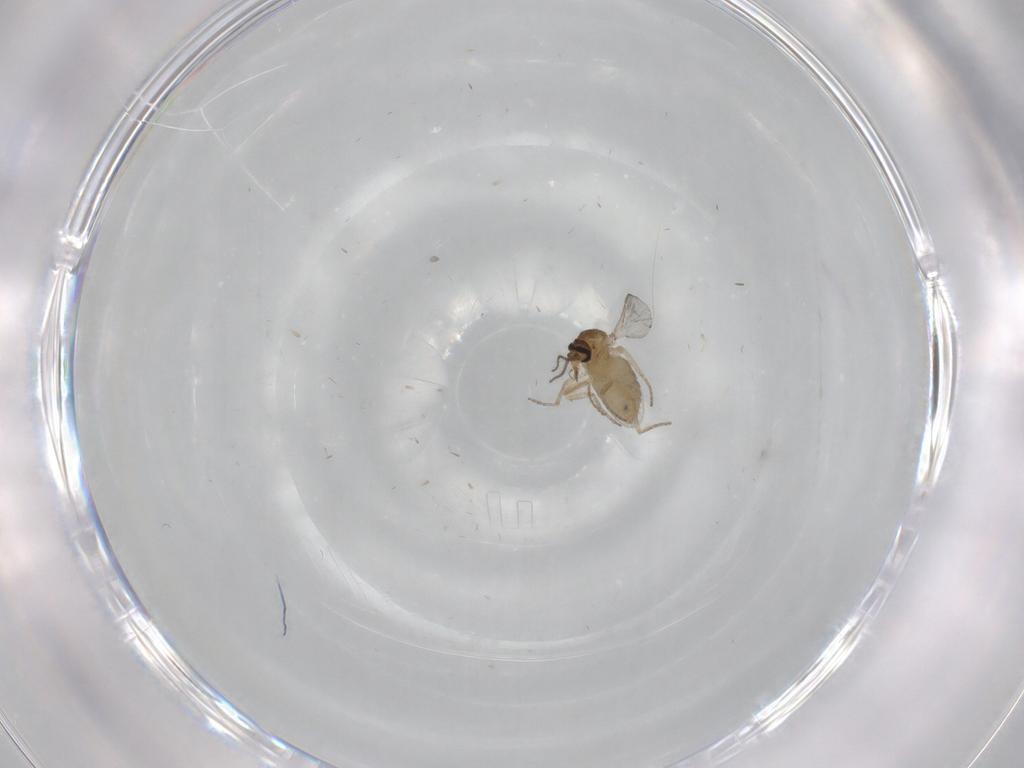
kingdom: Animalia
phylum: Arthropoda
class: Insecta
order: Diptera
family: Ceratopogonidae
